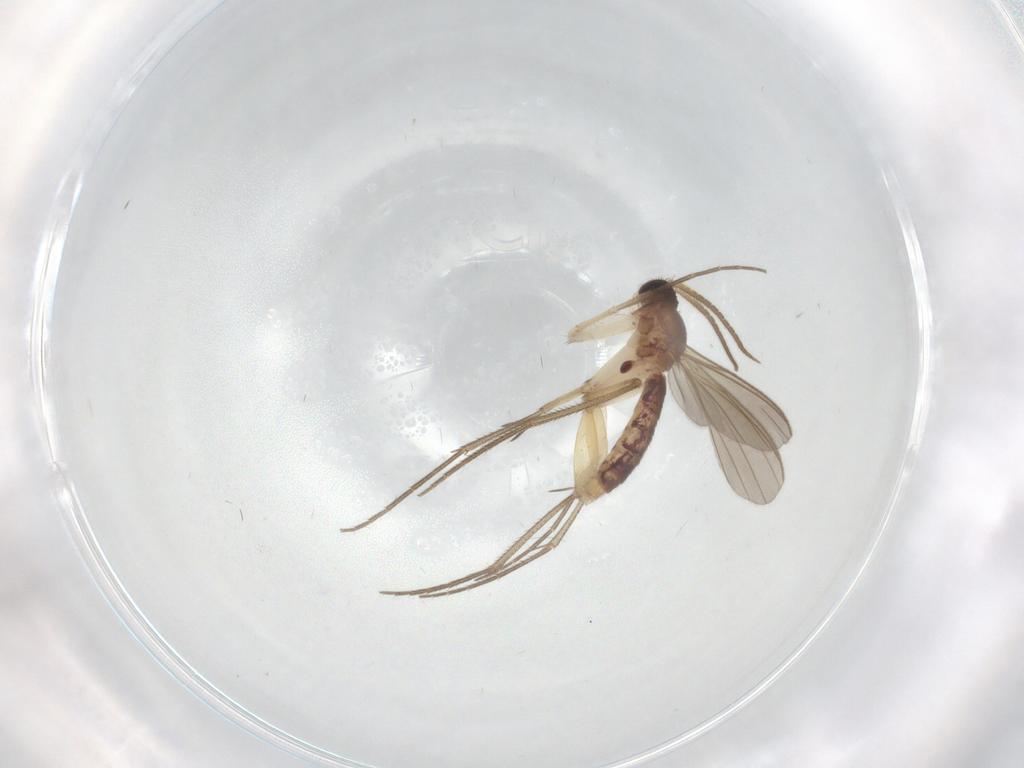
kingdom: Animalia
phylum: Arthropoda
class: Insecta
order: Diptera
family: Mycetophilidae
